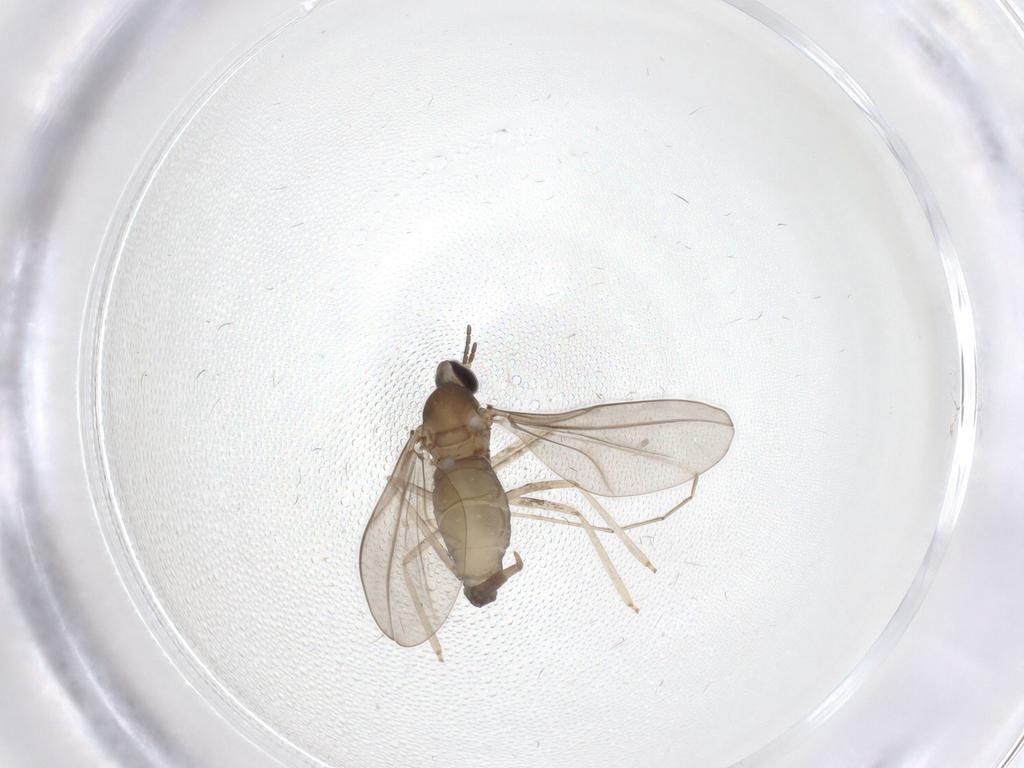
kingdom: Animalia
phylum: Arthropoda
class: Insecta
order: Diptera
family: Cecidomyiidae
